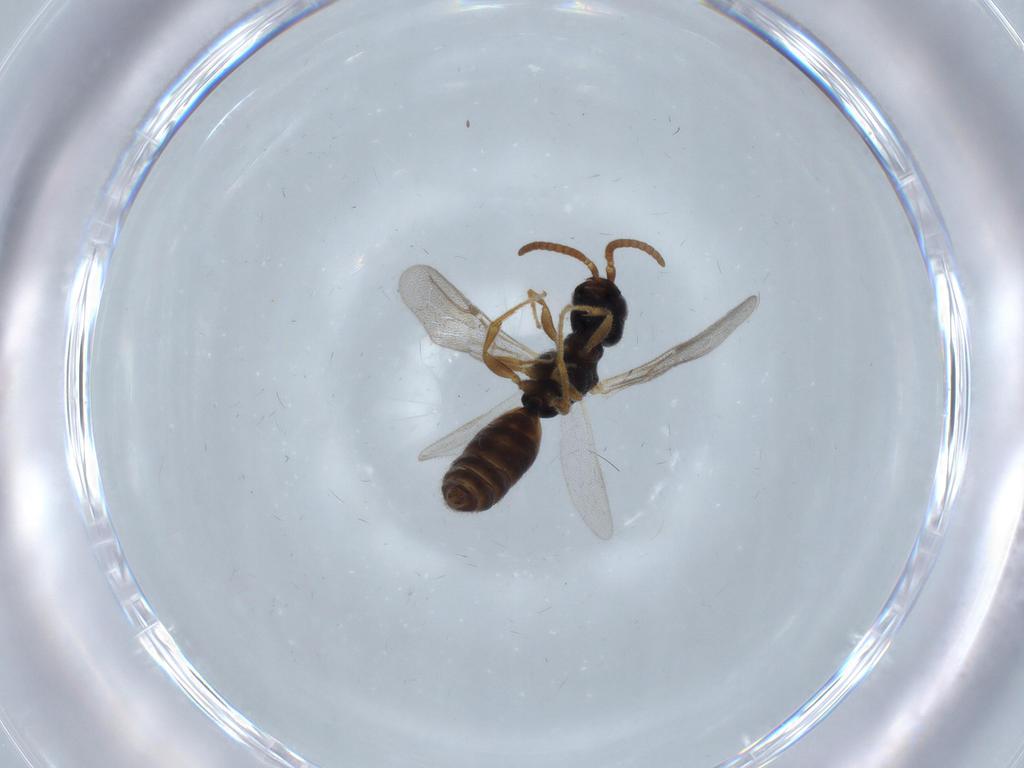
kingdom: Animalia
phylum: Arthropoda
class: Insecta
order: Hymenoptera
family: Bethylidae
